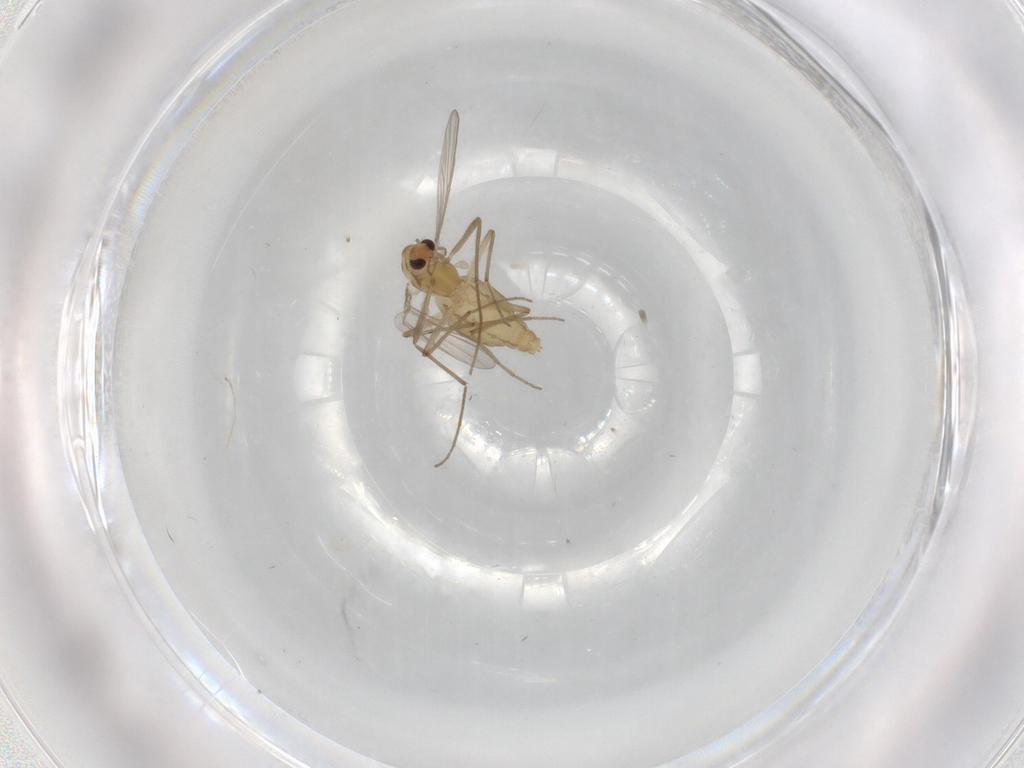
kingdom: Animalia
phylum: Arthropoda
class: Insecta
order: Diptera
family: Chironomidae
